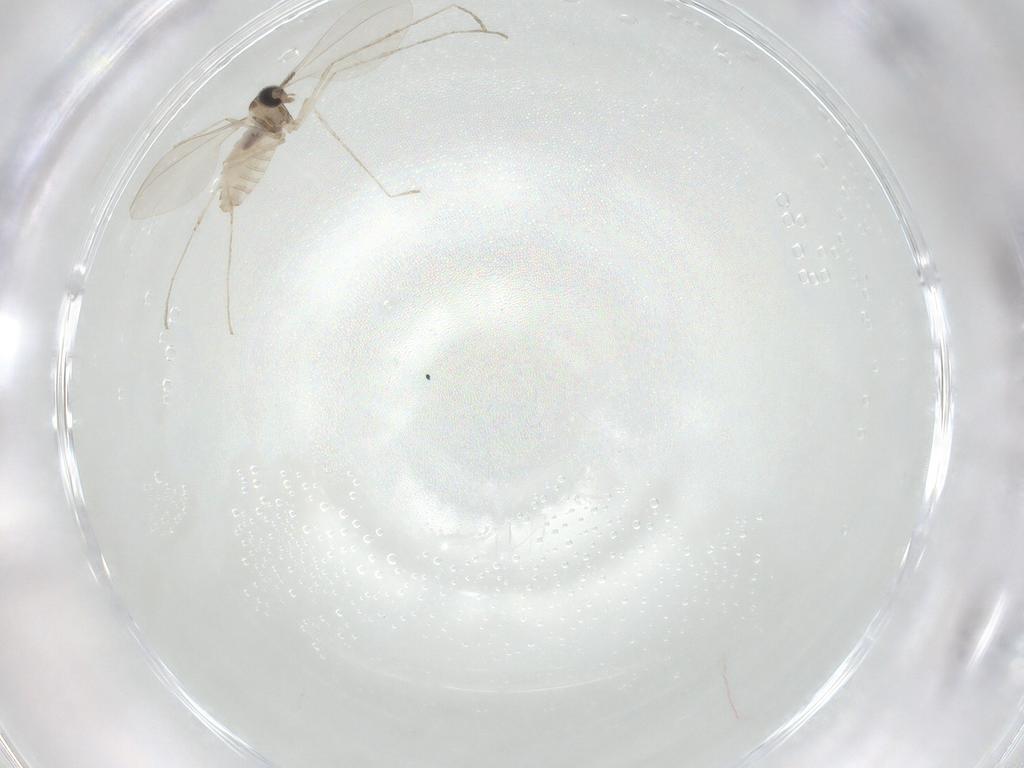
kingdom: Animalia
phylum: Arthropoda
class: Insecta
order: Diptera
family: Cecidomyiidae
